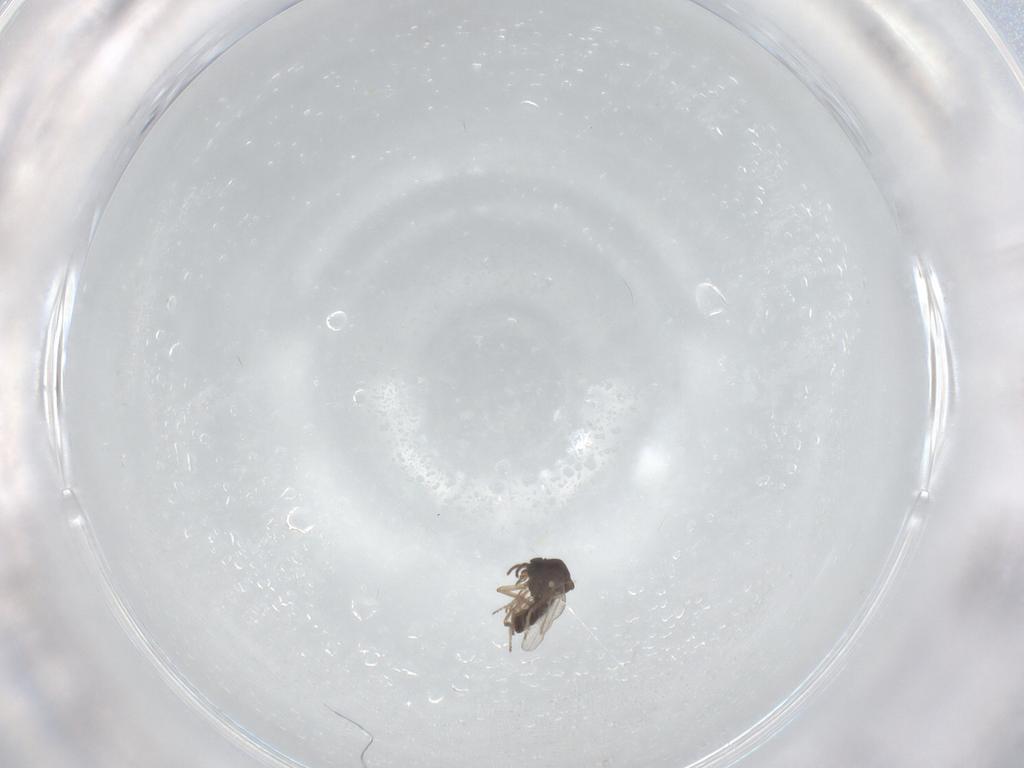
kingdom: Animalia
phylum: Arthropoda
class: Insecta
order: Diptera
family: Ceratopogonidae
